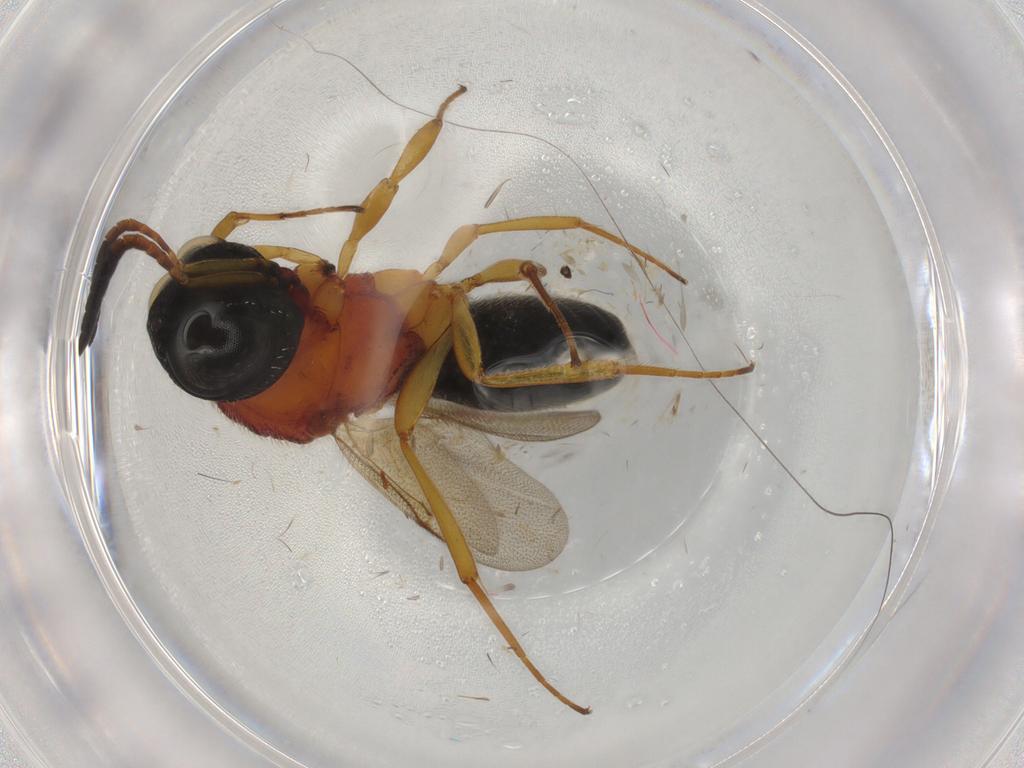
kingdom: Animalia
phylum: Arthropoda
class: Insecta
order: Hymenoptera
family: Scelionidae
